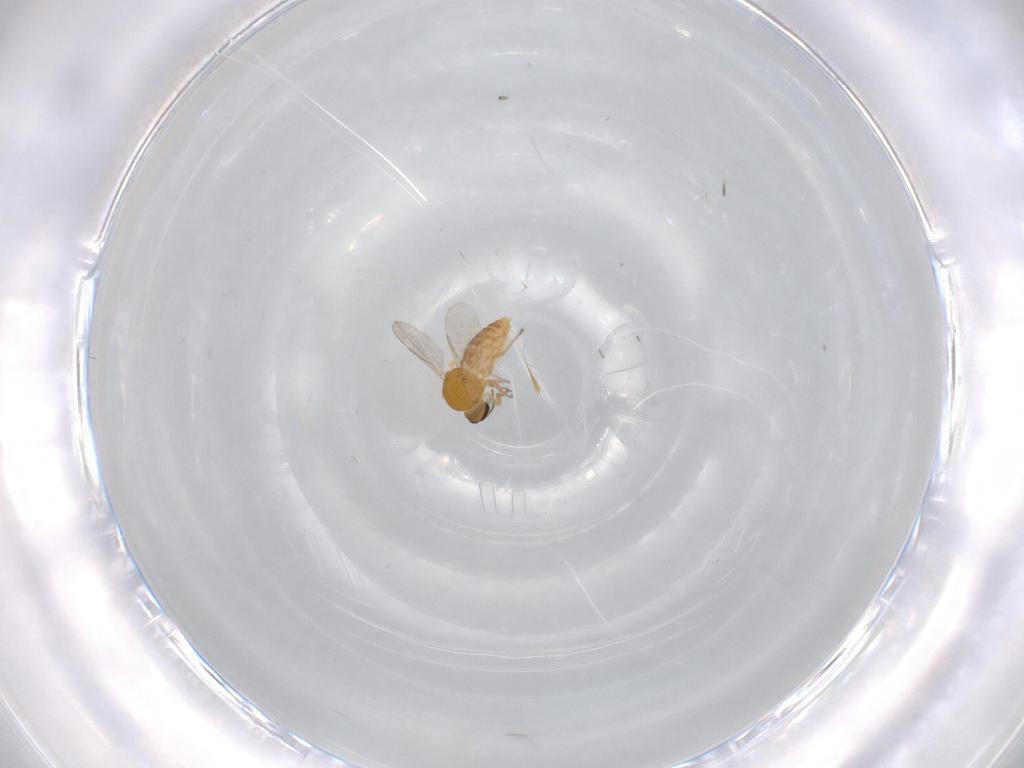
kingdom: Animalia
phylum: Arthropoda
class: Insecta
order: Diptera
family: Ceratopogonidae
